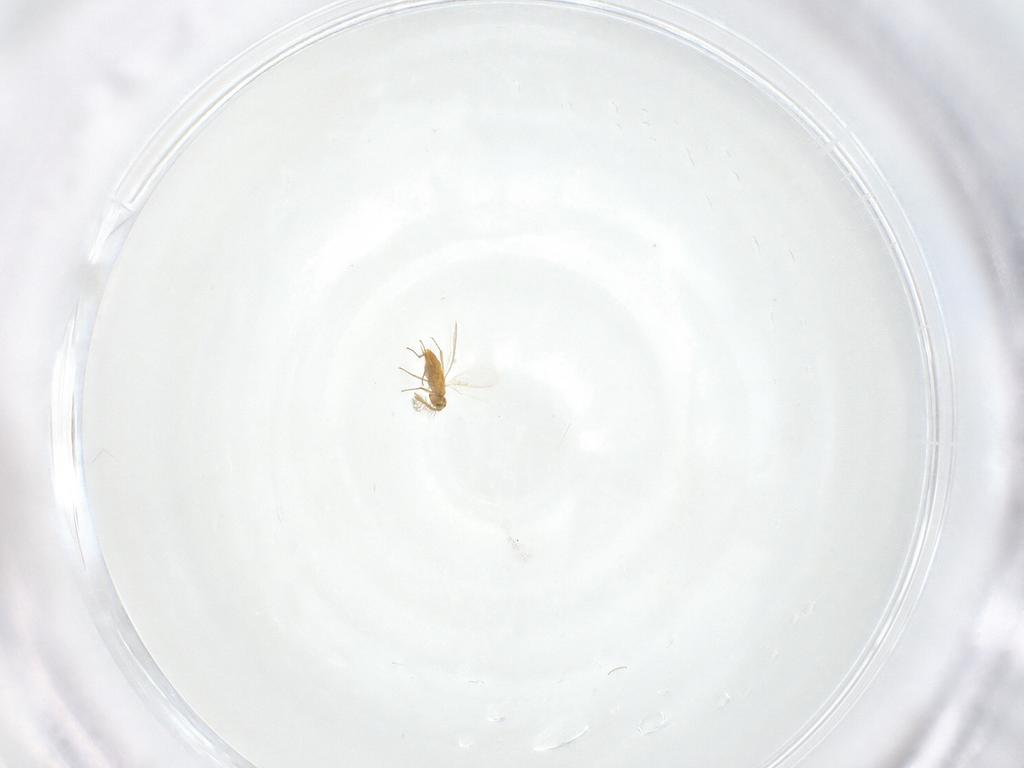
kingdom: Animalia
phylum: Arthropoda
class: Insecta
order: Hymenoptera
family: Aphelinidae
